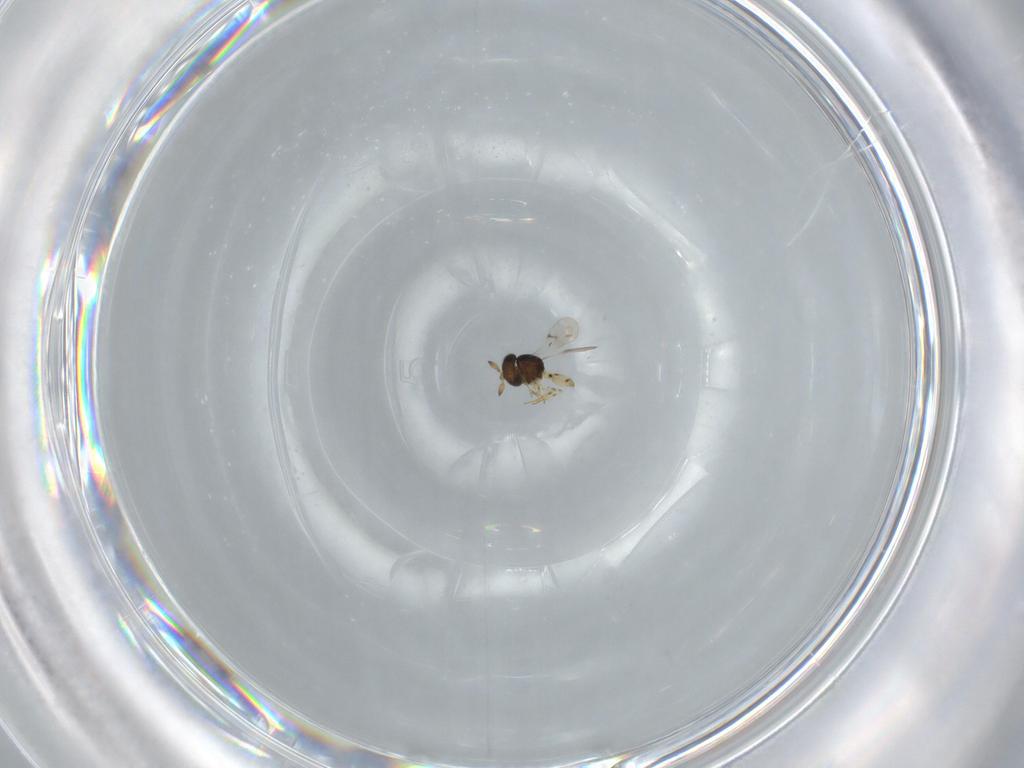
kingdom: Animalia
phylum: Arthropoda
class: Insecta
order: Hymenoptera
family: Scelionidae
